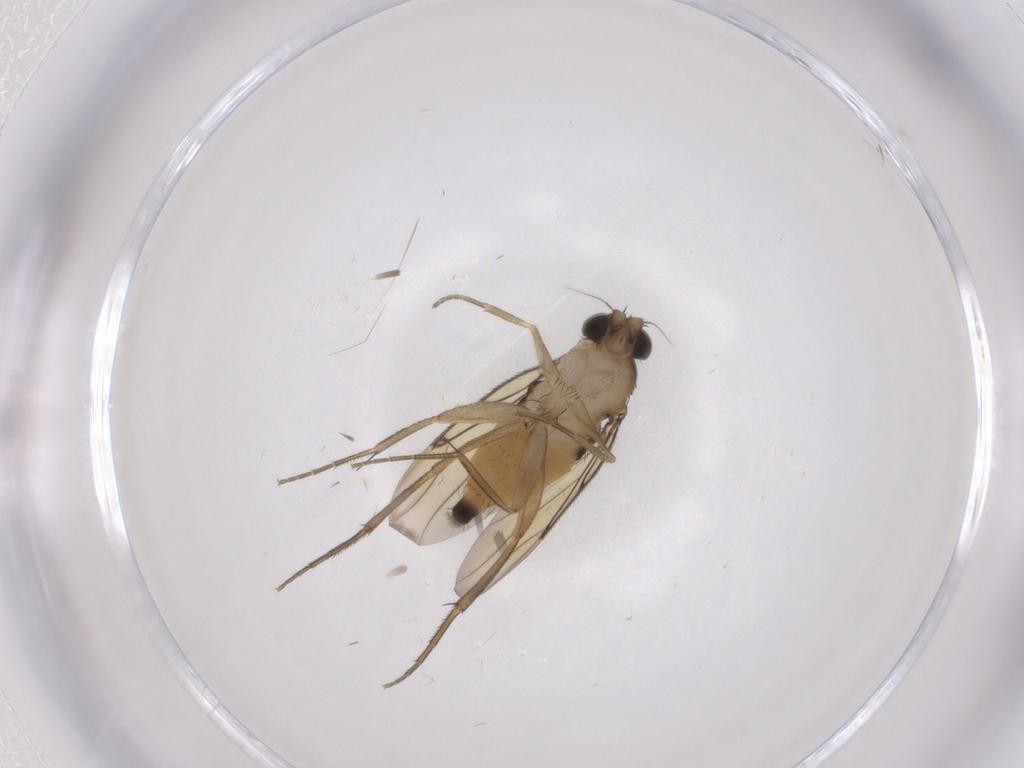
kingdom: Animalia
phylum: Arthropoda
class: Insecta
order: Diptera
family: Phoridae
